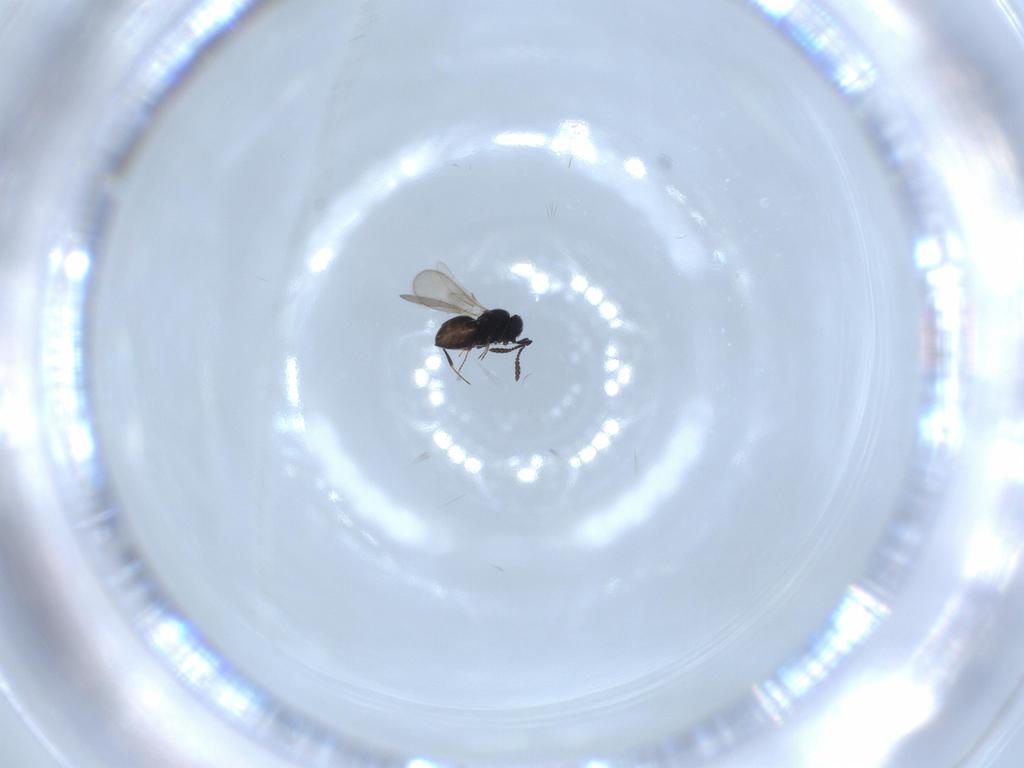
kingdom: Animalia
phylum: Arthropoda
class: Insecta
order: Hymenoptera
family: Scelionidae
